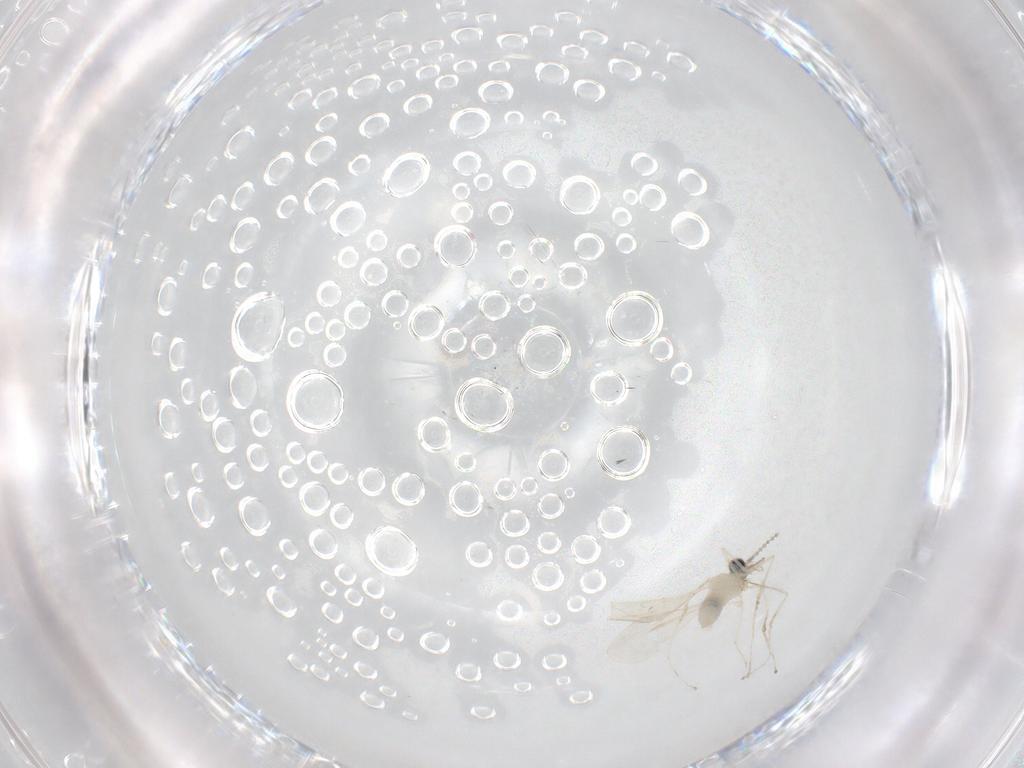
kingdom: Animalia
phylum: Arthropoda
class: Insecta
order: Diptera
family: Cecidomyiidae
